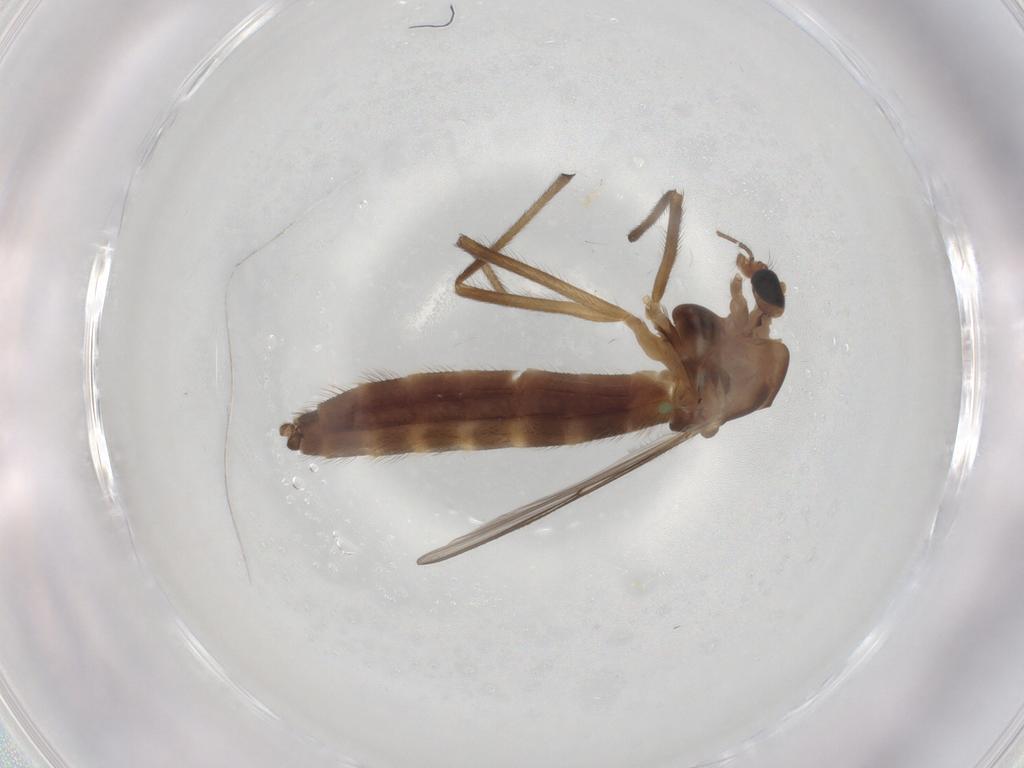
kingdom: Animalia
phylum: Arthropoda
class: Insecta
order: Diptera
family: Chironomidae
